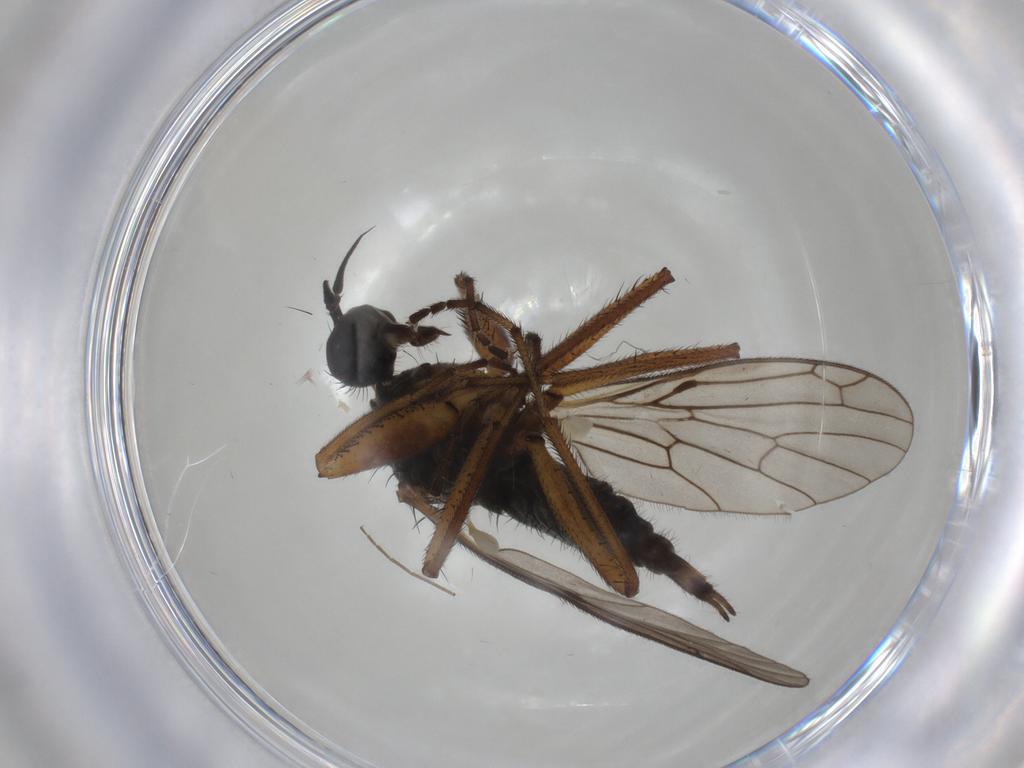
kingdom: Animalia
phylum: Arthropoda
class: Insecta
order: Diptera
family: Empididae
